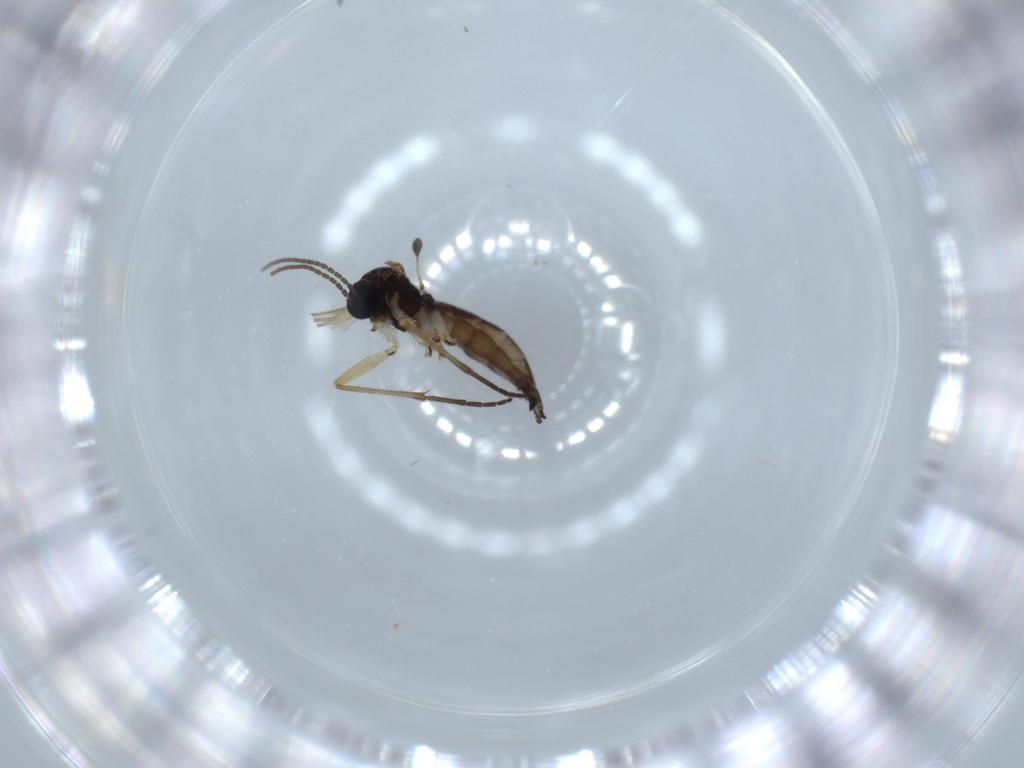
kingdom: Animalia
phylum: Arthropoda
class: Insecta
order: Diptera
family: Sciaridae
